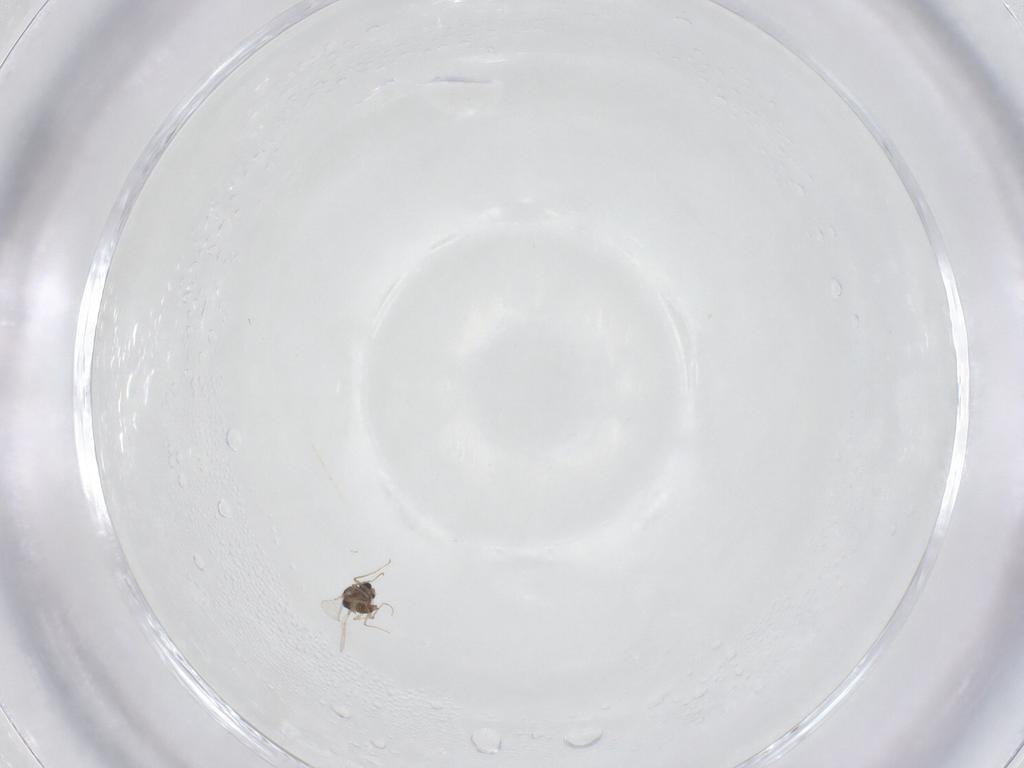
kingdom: Animalia
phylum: Arthropoda
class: Insecta
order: Diptera
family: Chironomidae
